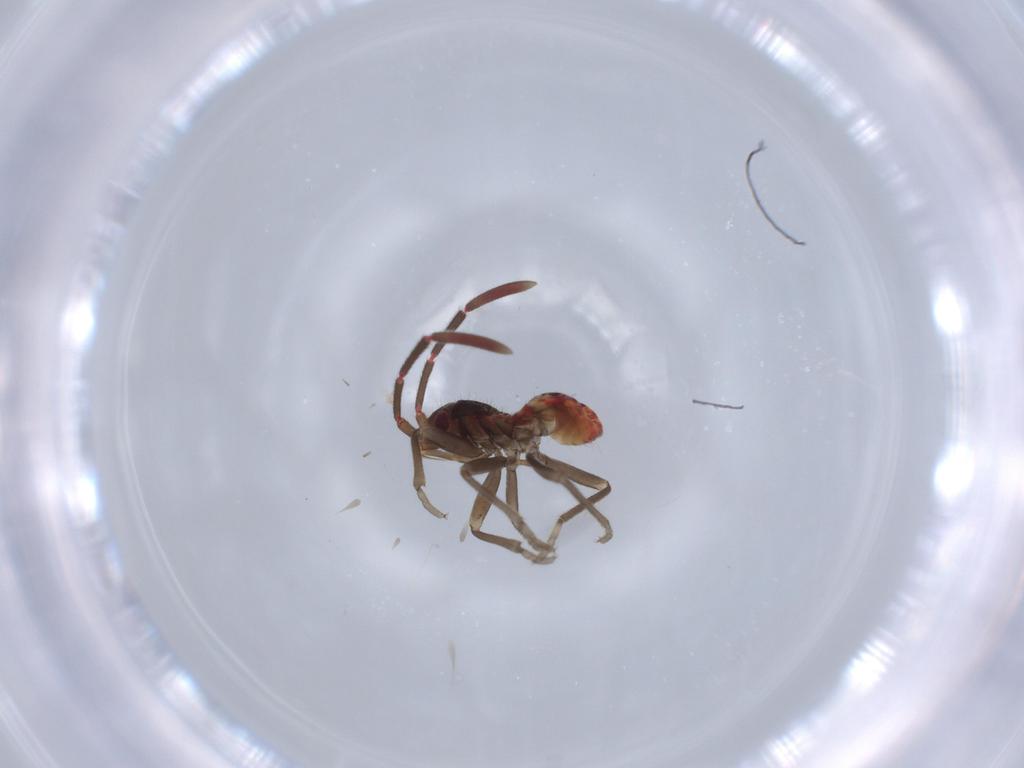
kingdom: Animalia
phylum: Arthropoda
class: Insecta
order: Hemiptera
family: Rhyparochromidae
